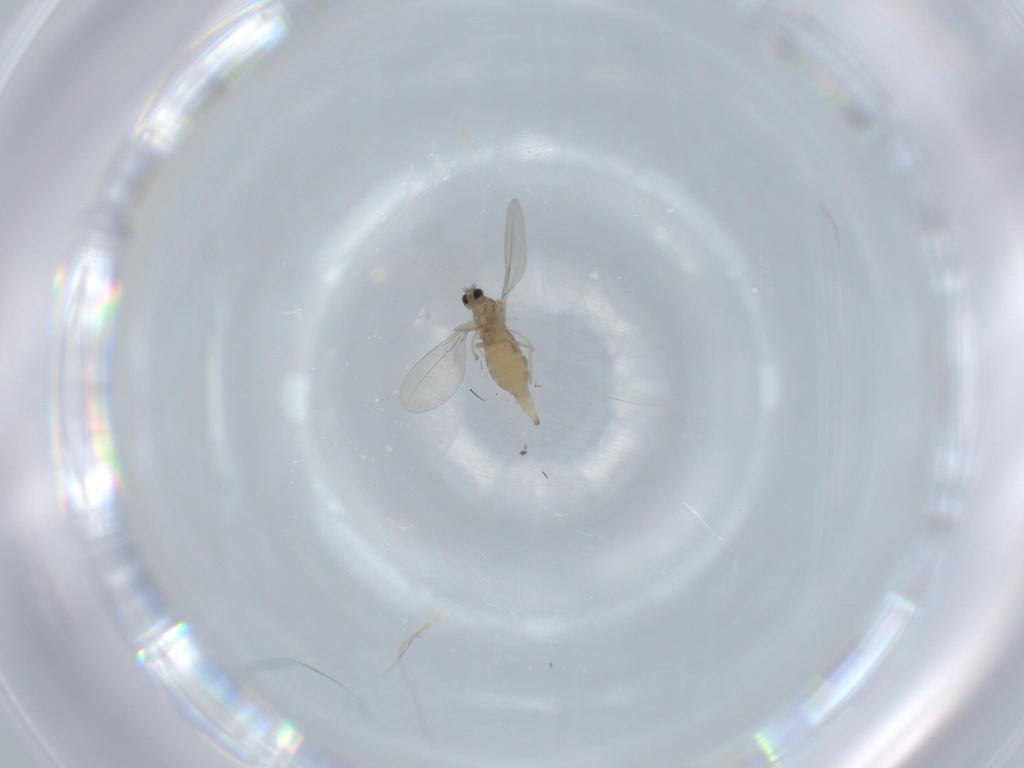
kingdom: Animalia
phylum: Arthropoda
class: Insecta
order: Diptera
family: Cecidomyiidae
